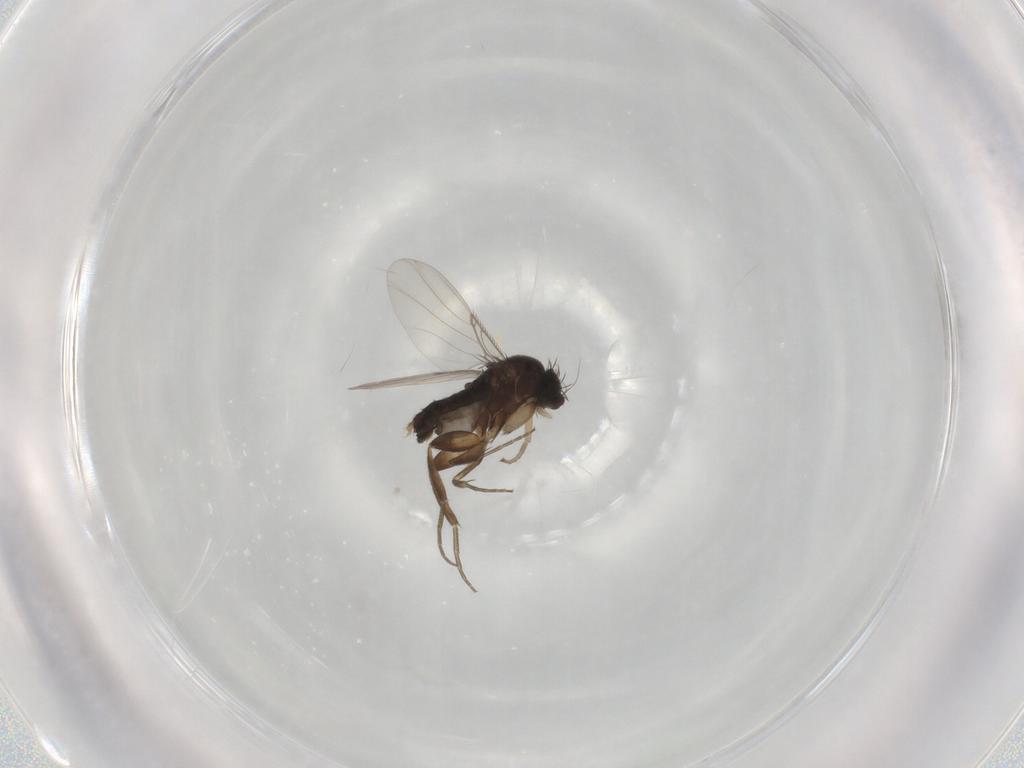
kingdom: Animalia
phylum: Arthropoda
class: Insecta
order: Diptera
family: Phoridae
